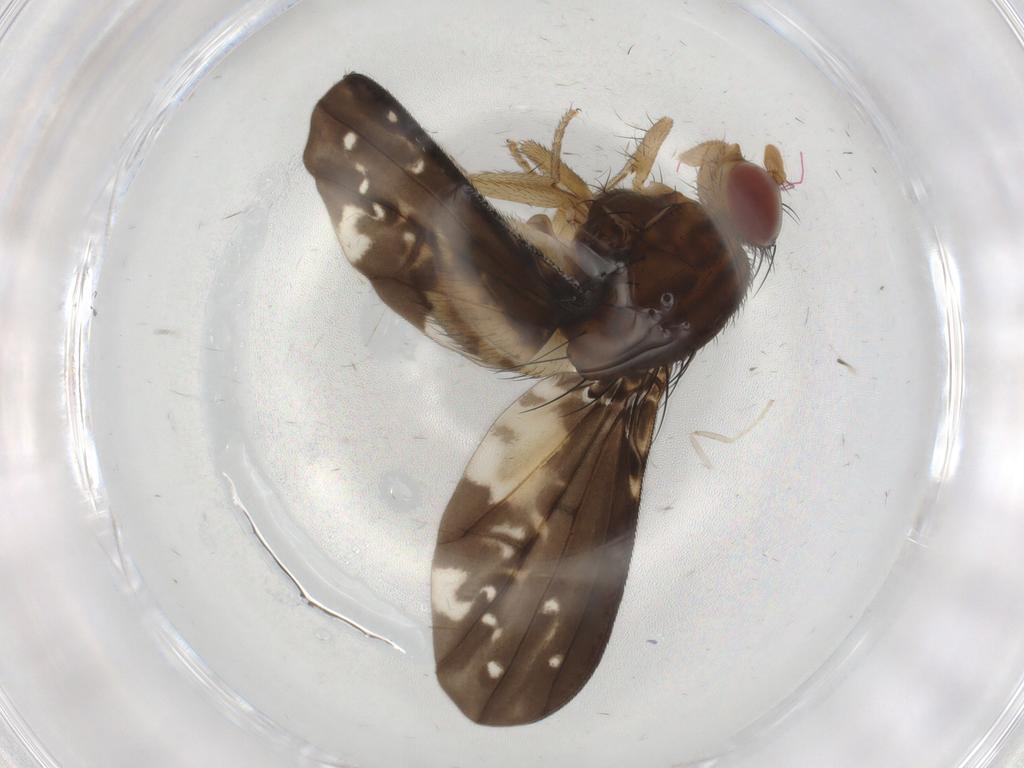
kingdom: Animalia
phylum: Arthropoda
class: Insecta
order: Diptera
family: Lauxaniidae
